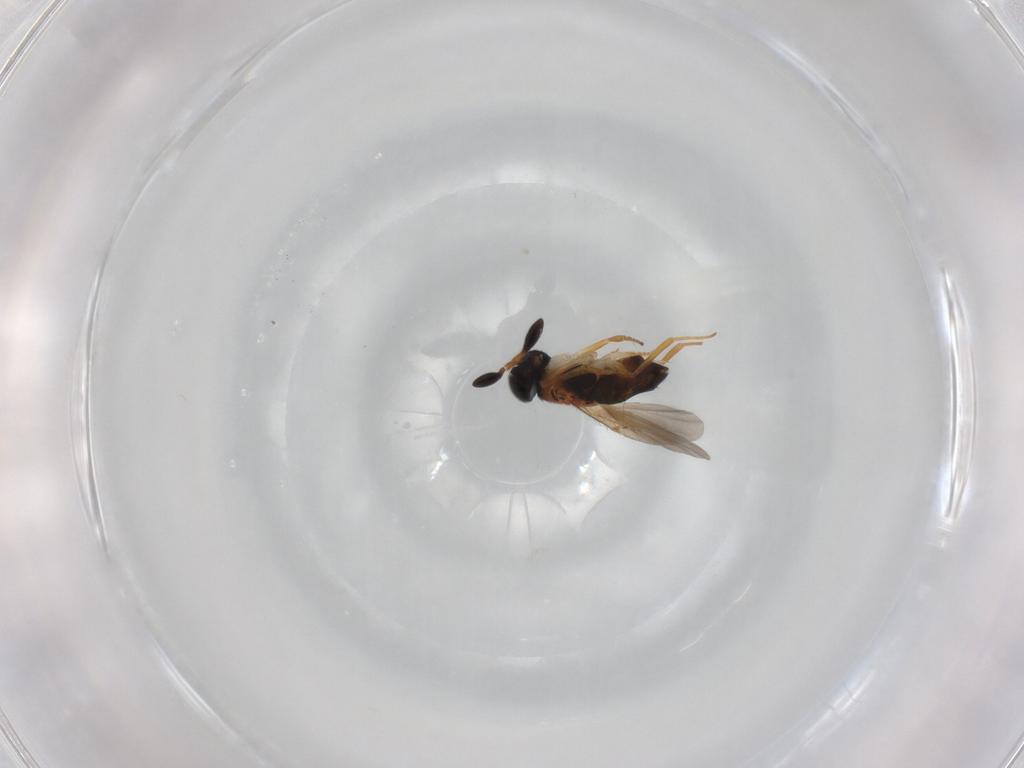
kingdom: Animalia
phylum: Arthropoda
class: Insecta
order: Hymenoptera
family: Encyrtidae
